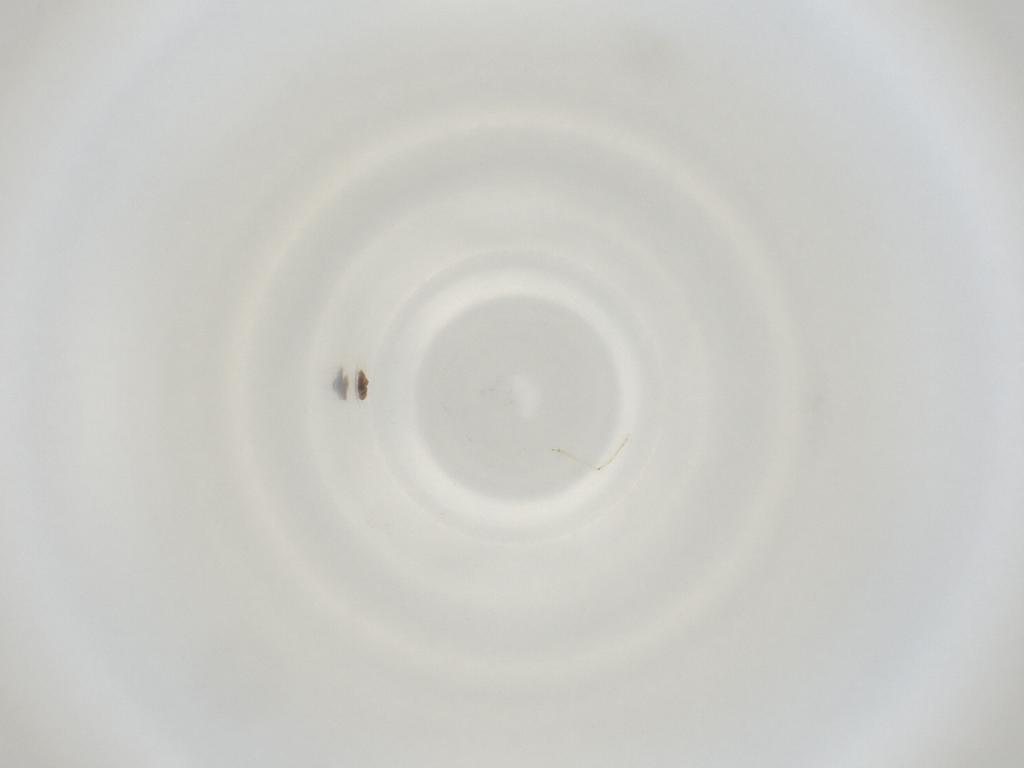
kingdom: Animalia
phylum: Arthropoda
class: Insecta
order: Diptera
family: Cecidomyiidae
